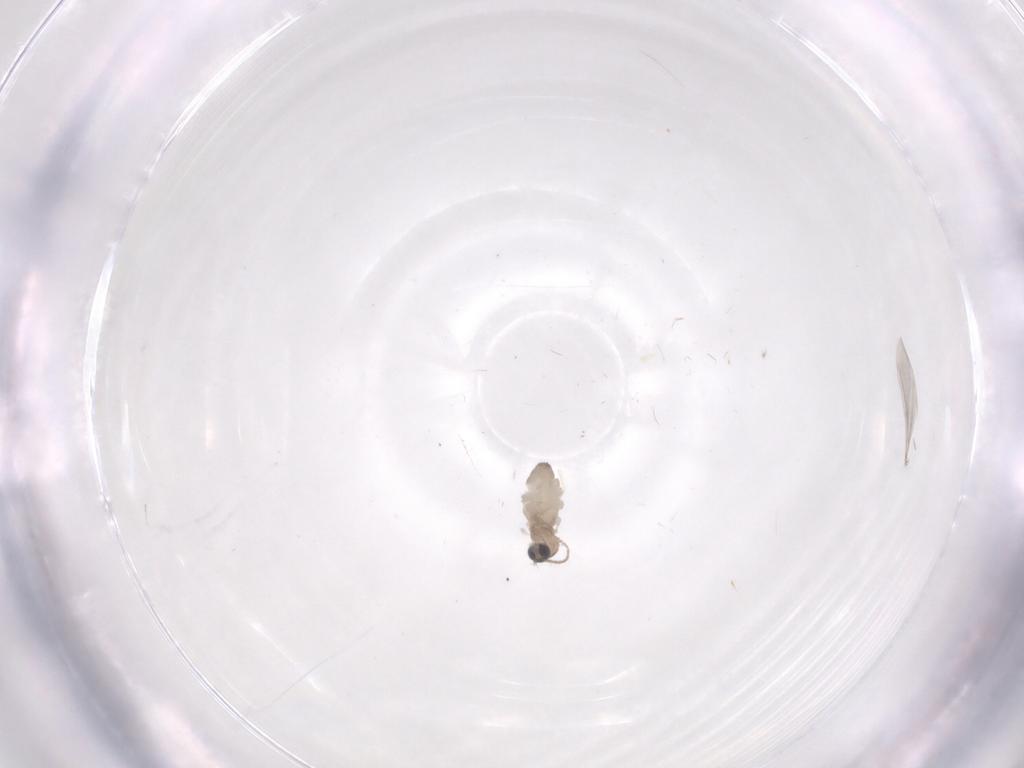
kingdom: Animalia
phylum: Arthropoda
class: Insecta
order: Diptera
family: Cecidomyiidae
